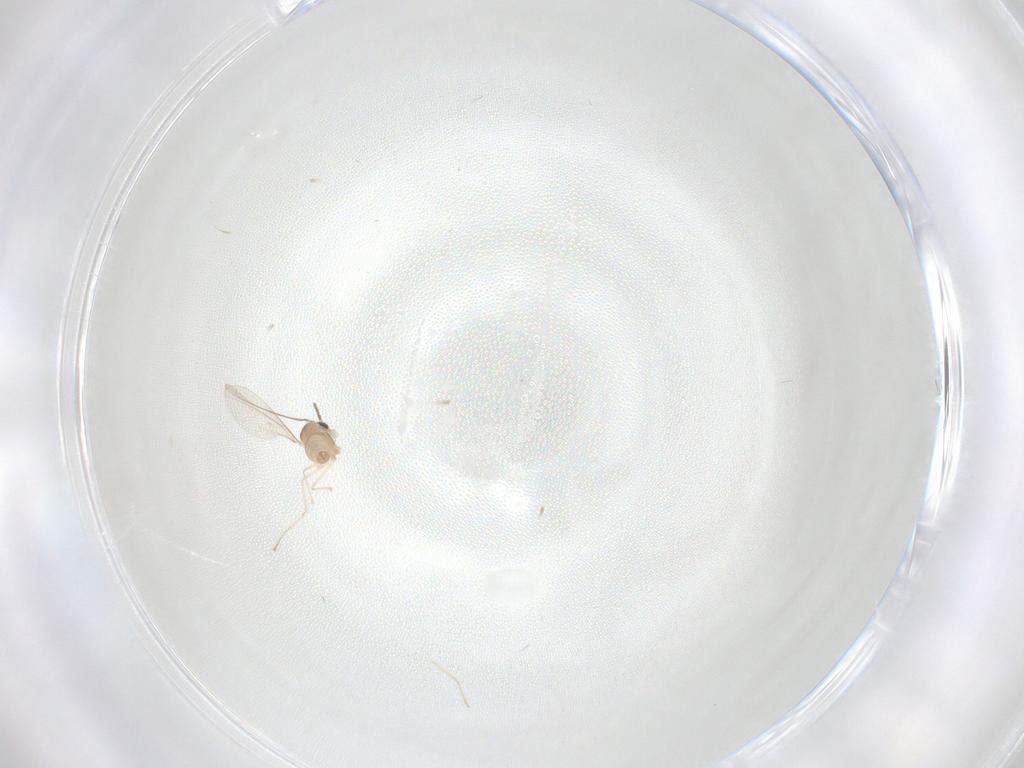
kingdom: Animalia
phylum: Arthropoda
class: Insecta
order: Diptera
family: Cecidomyiidae
